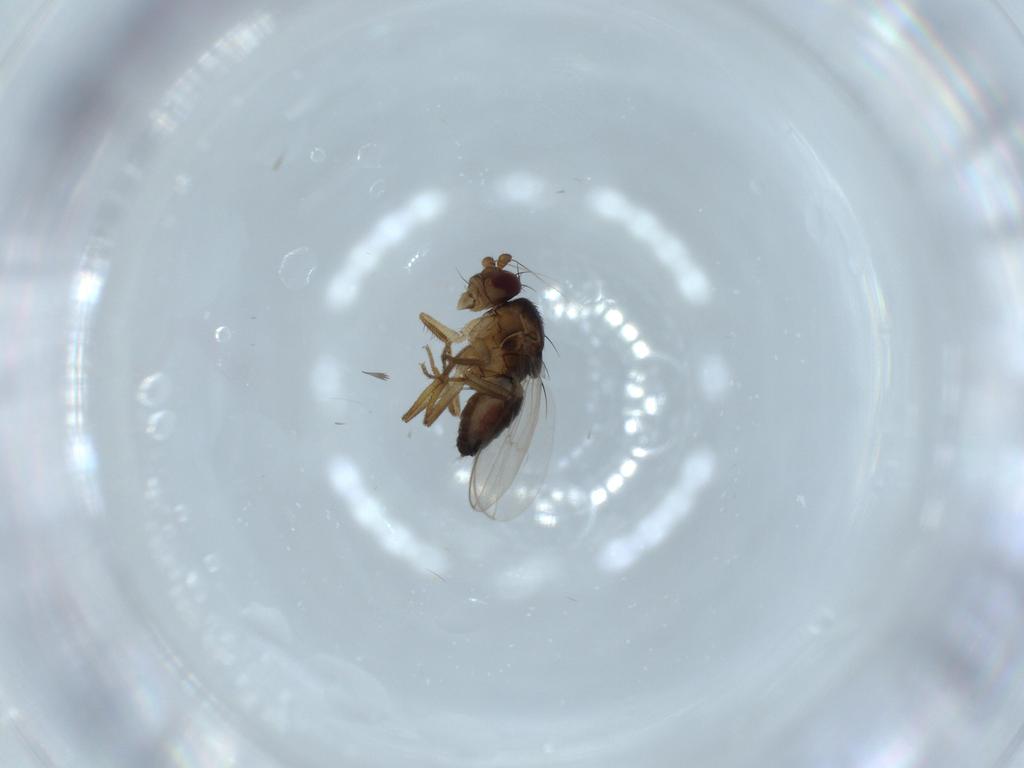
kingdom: Animalia
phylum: Arthropoda
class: Insecta
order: Diptera
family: Sphaeroceridae
